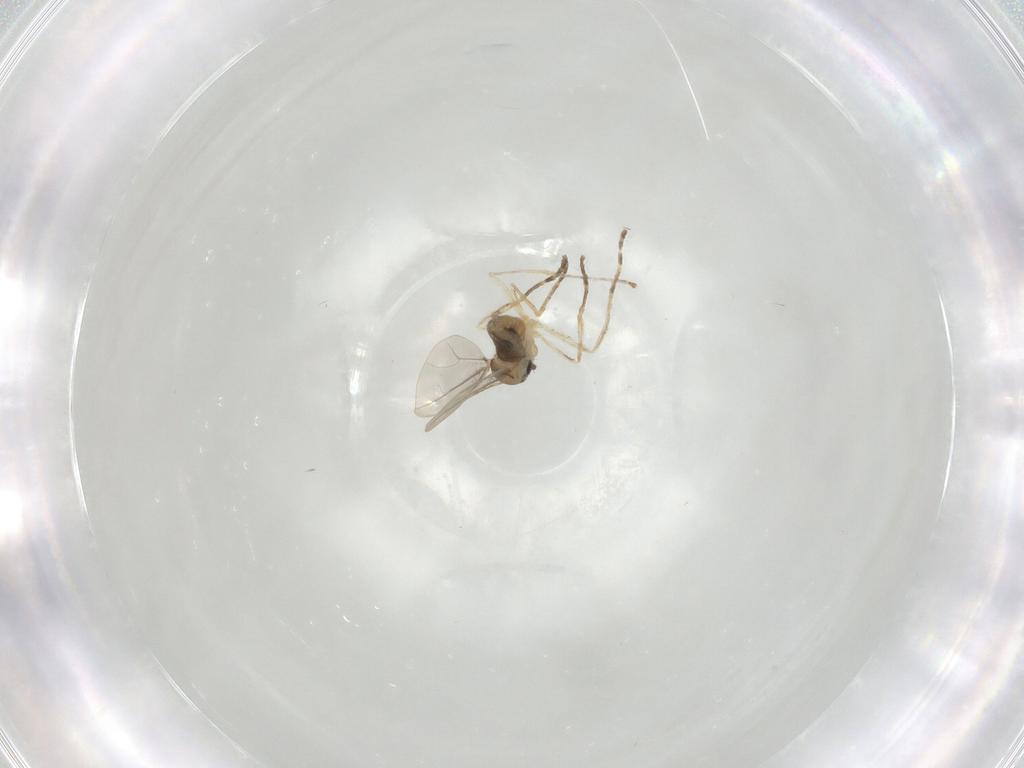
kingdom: Animalia
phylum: Arthropoda
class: Insecta
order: Diptera
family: Cecidomyiidae
